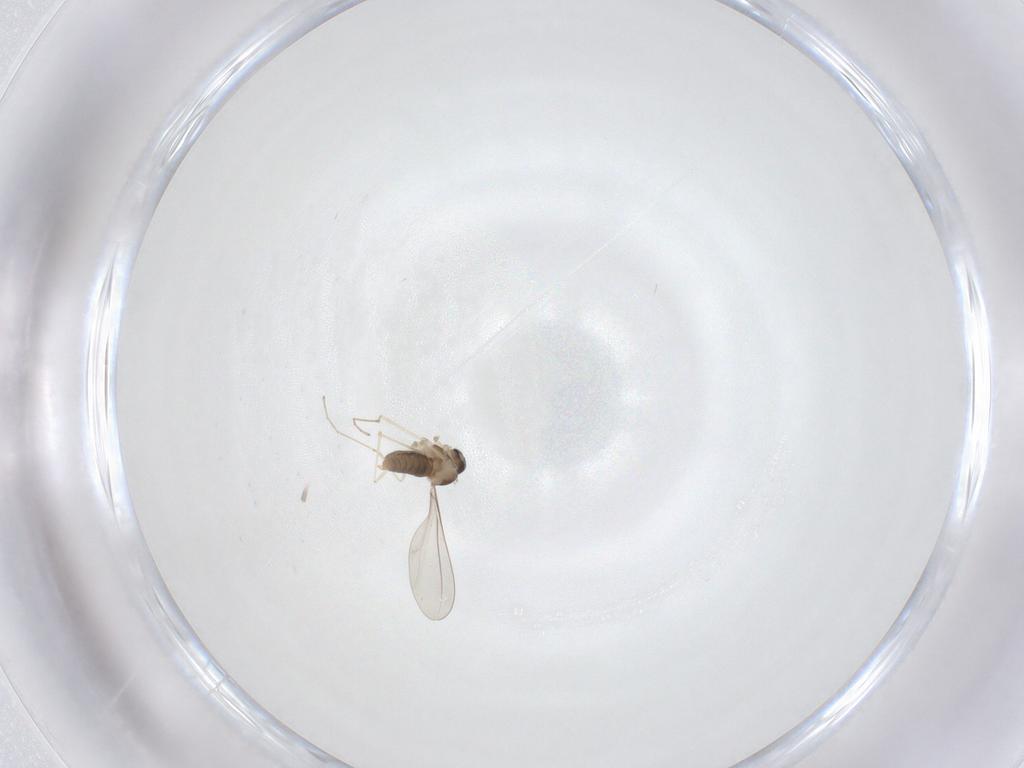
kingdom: Animalia
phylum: Arthropoda
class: Insecta
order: Diptera
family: Cecidomyiidae
